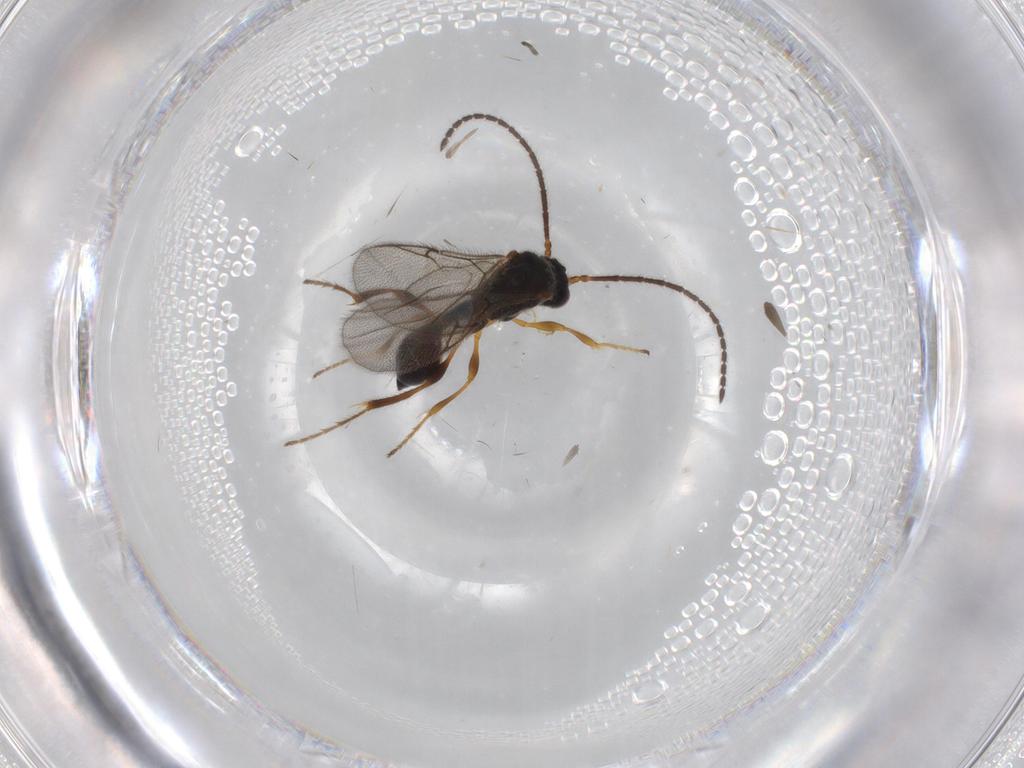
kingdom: Animalia
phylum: Arthropoda
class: Insecta
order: Hymenoptera
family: Diapriidae
